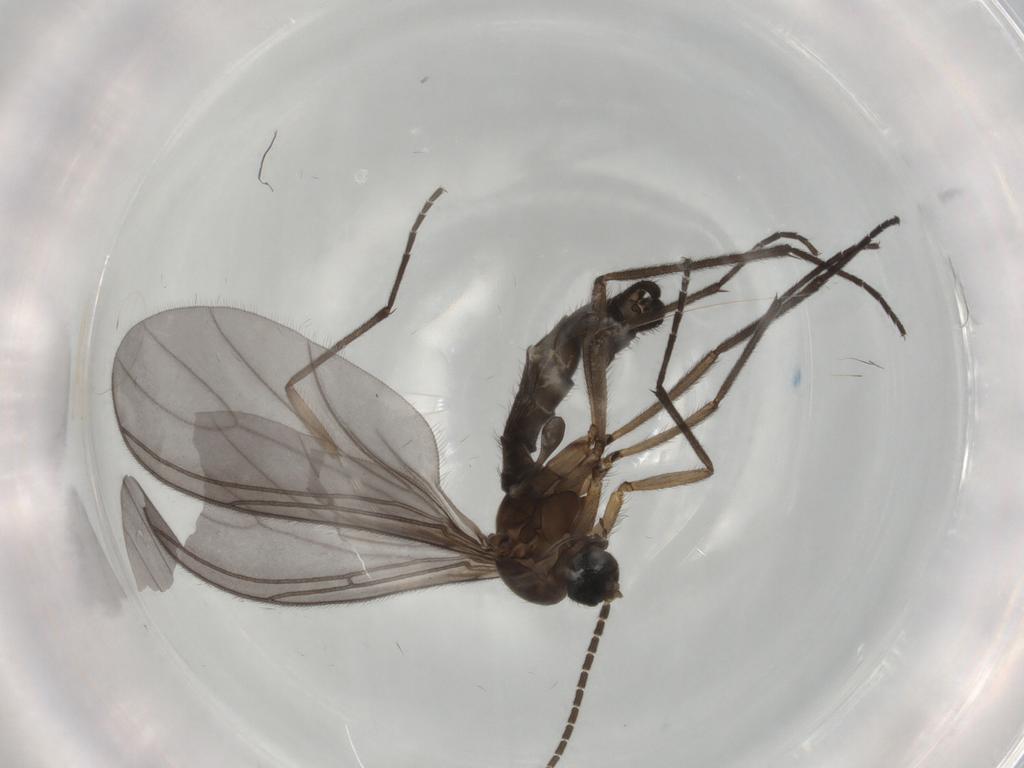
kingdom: Animalia
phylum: Arthropoda
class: Insecta
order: Diptera
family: Sciaridae
